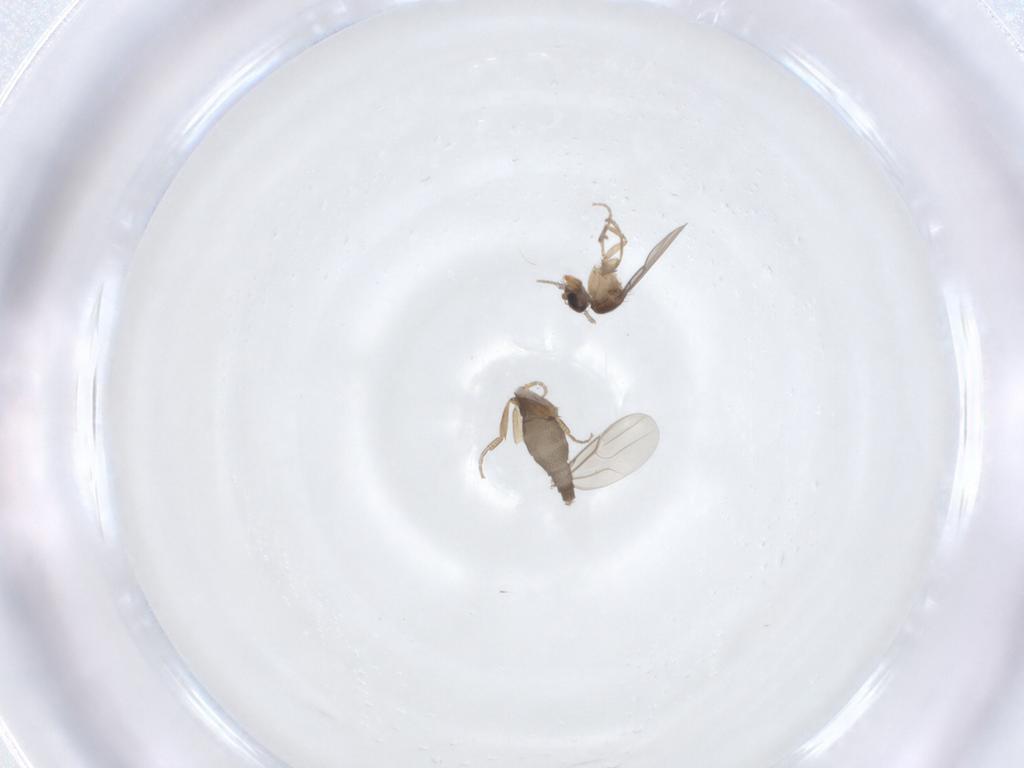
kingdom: Animalia
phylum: Arthropoda
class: Insecta
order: Diptera
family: Phoridae
